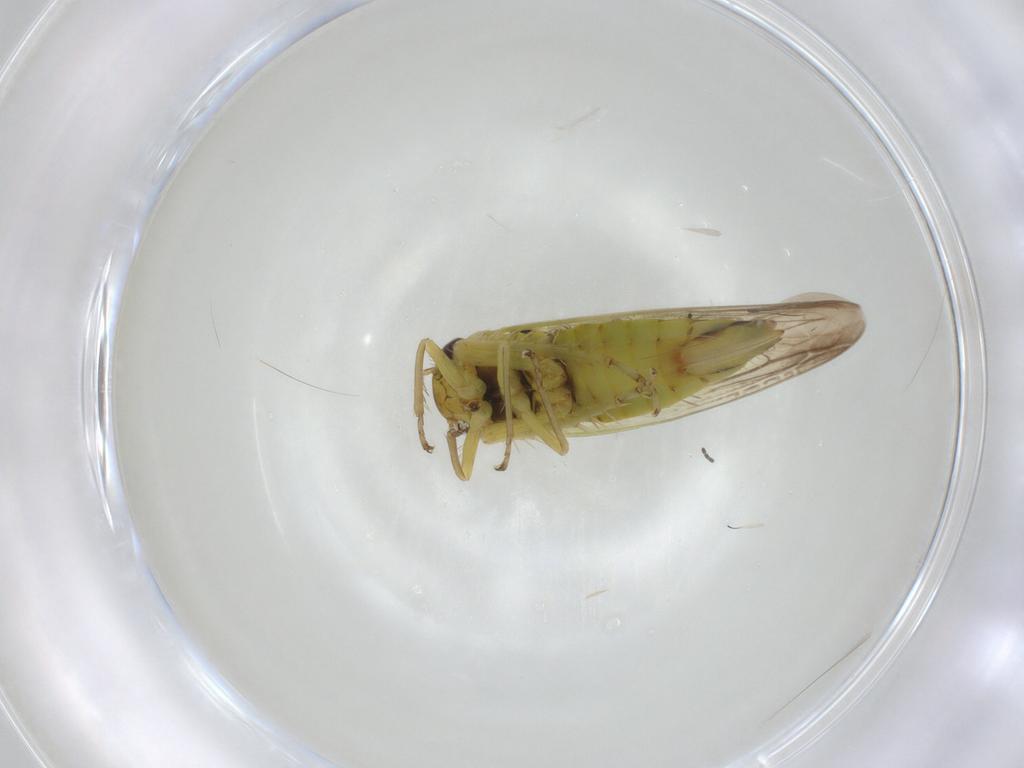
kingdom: Animalia
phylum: Arthropoda
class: Insecta
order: Hemiptera
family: Cicadellidae
